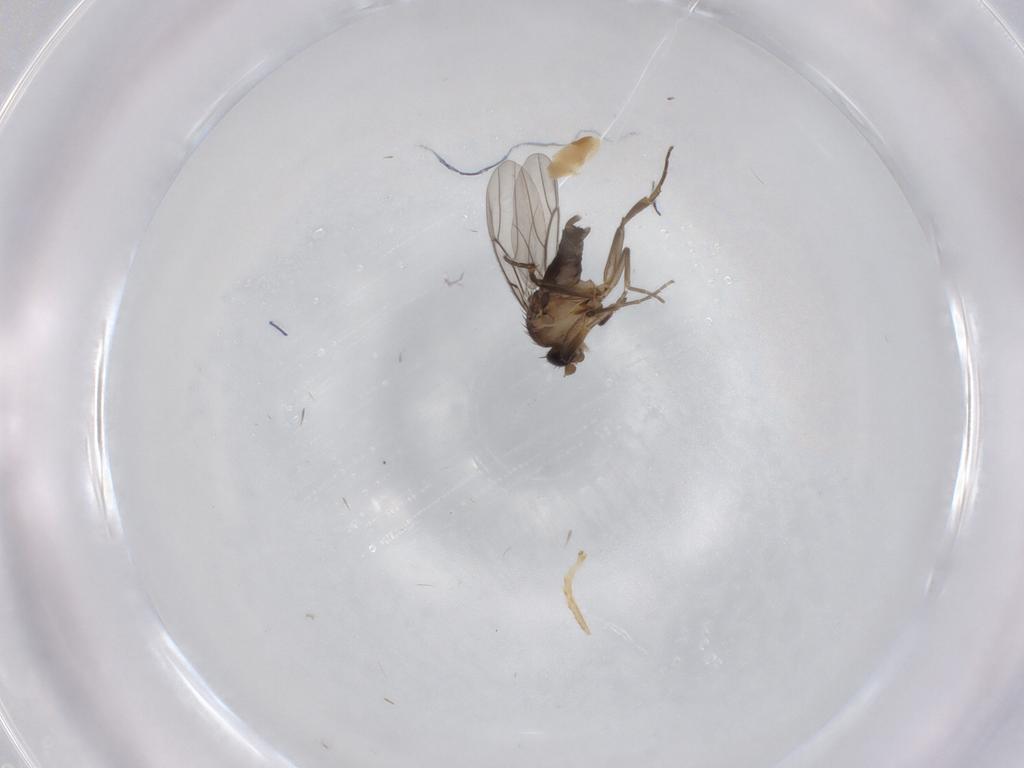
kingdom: Animalia
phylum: Arthropoda
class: Insecta
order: Diptera
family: Phoridae
